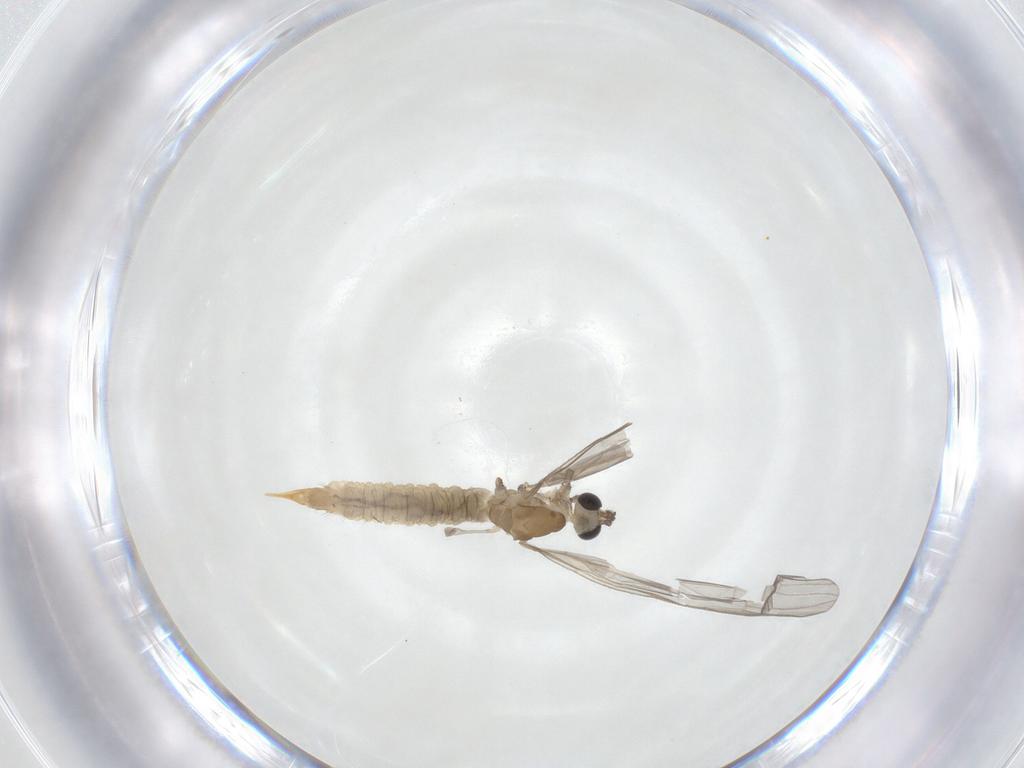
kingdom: Animalia
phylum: Arthropoda
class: Insecta
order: Diptera
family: Limoniidae
